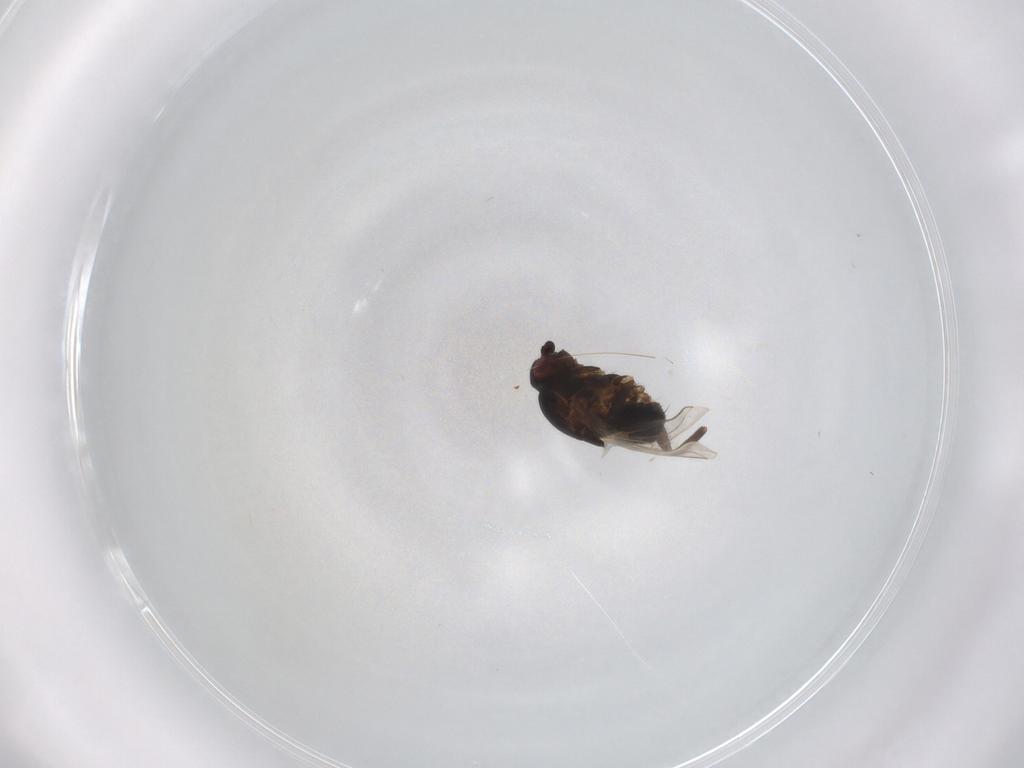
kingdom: Animalia
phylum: Arthropoda
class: Insecta
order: Diptera
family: Sphaeroceridae
